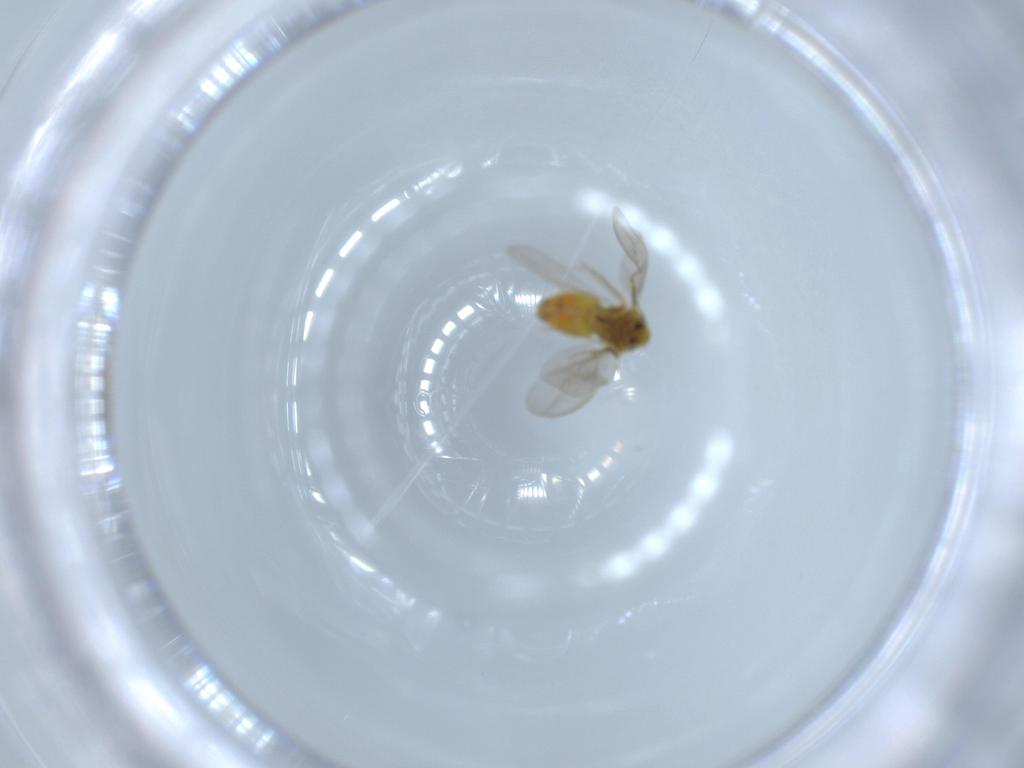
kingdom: Animalia
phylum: Arthropoda
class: Insecta
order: Hemiptera
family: Aleyrodidae
